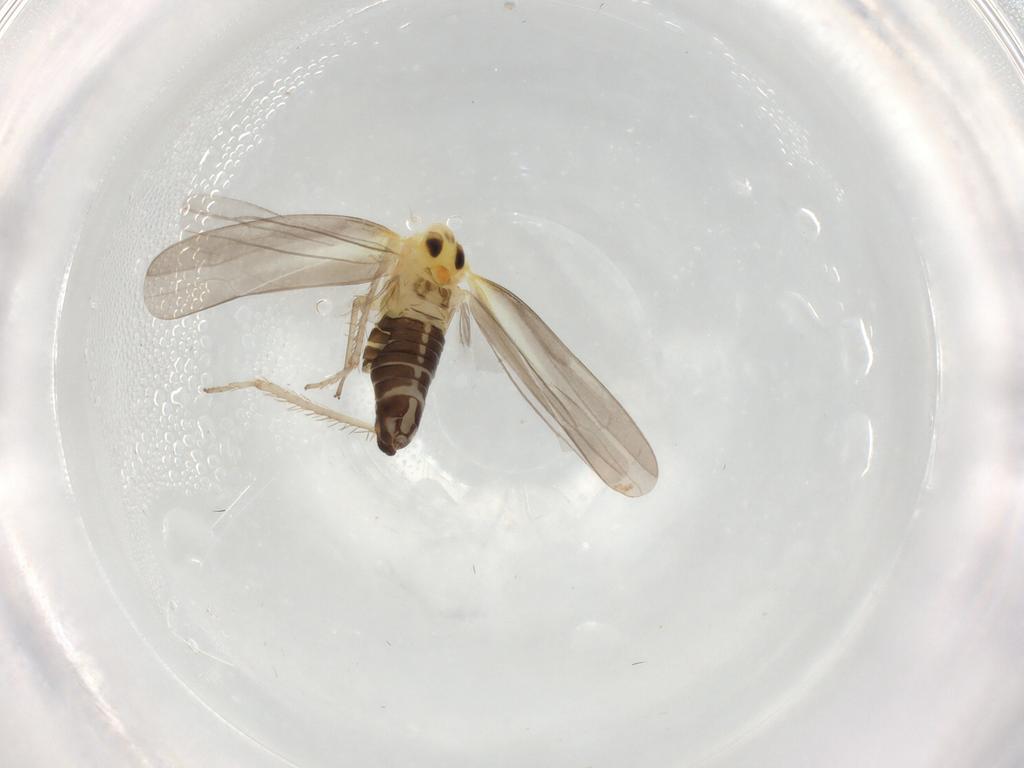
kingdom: Animalia
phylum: Arthropoda
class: Insecta
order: Hemiptera
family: Cicadellidae
